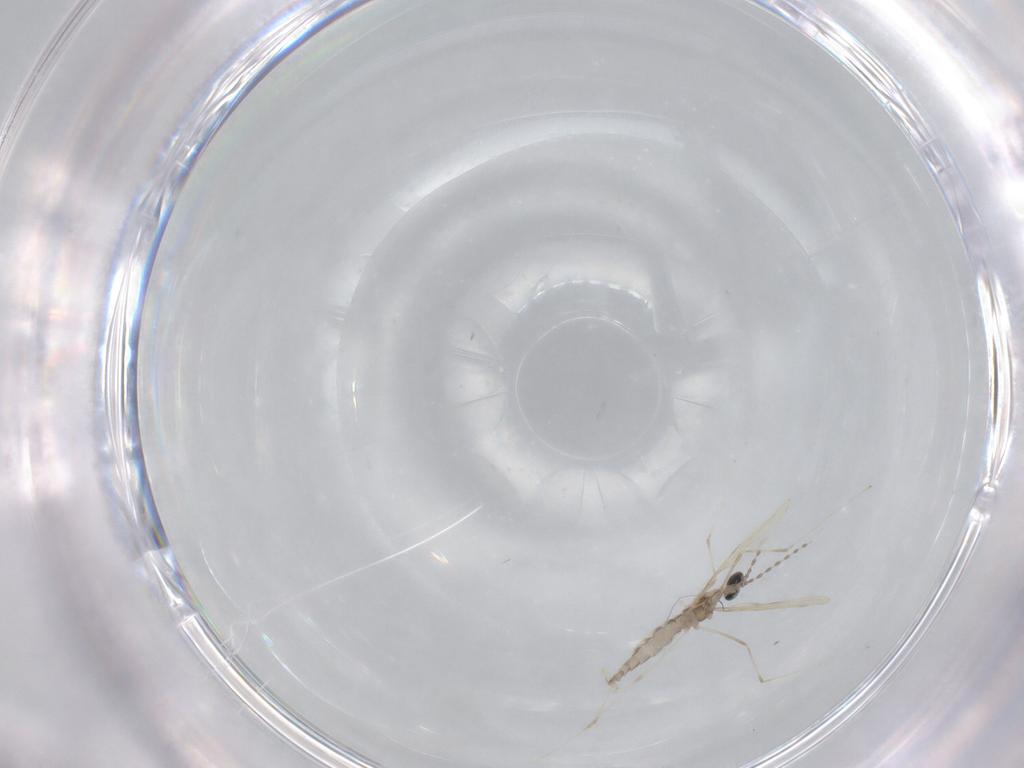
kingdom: Animalia
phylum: Arthropoda
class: Insecta
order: Diptera
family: Cecidomyiidae
